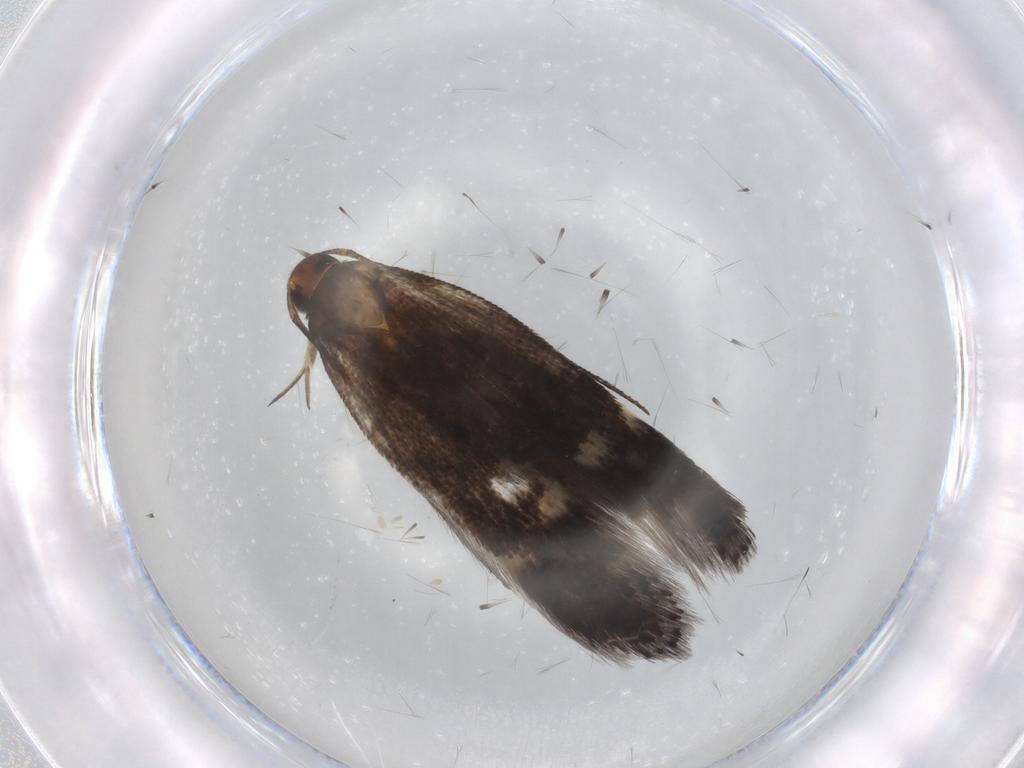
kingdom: Animalia
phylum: Arthropoda
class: Insecta
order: Lepidoptera
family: Gelechiidae
